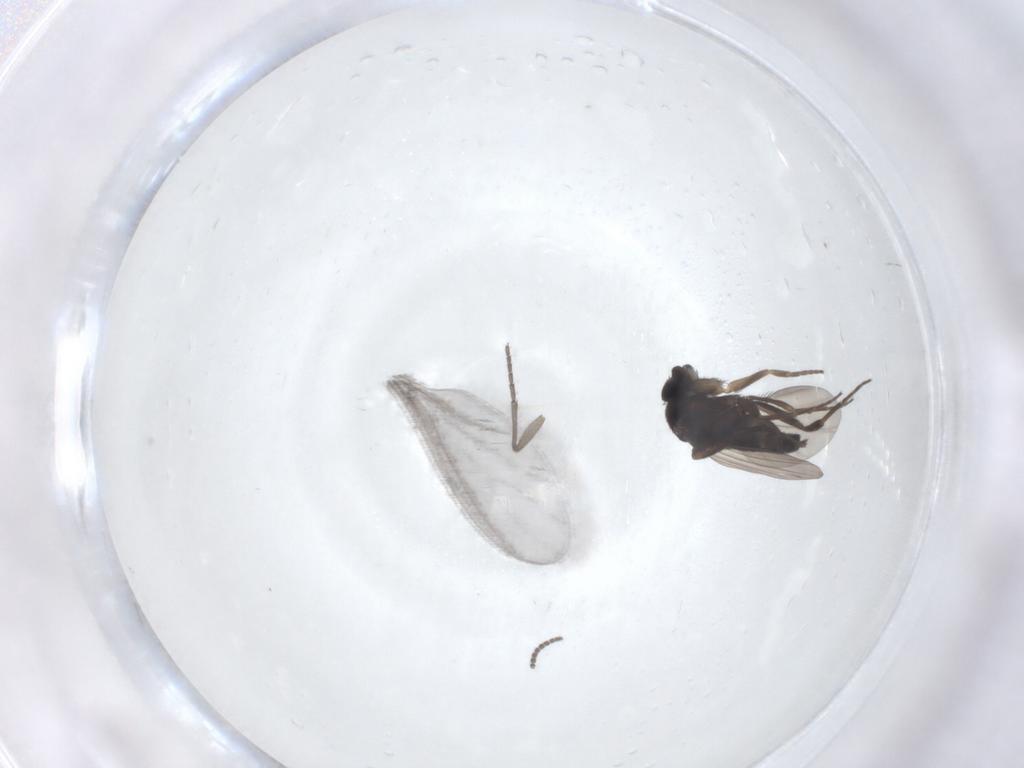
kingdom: Animalia
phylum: Arthropoda
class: Insecta
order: Diptera
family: Phoridae
